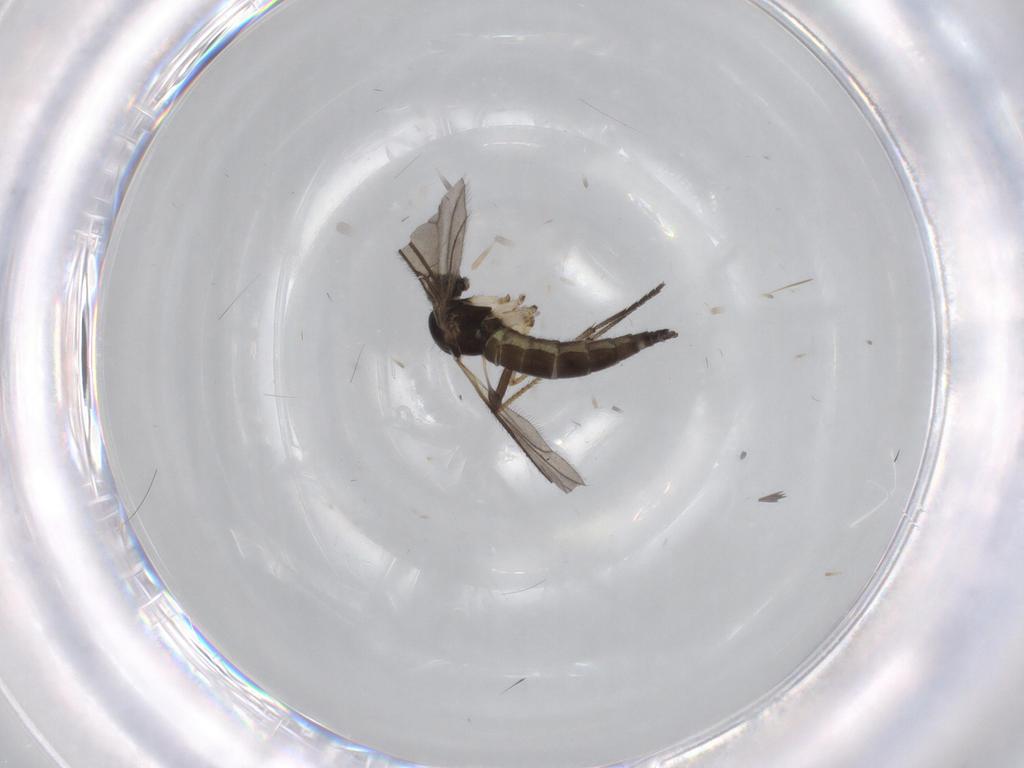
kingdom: Animalia
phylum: Arthropoda
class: Insecta
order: Diptera
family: Sciaridae
